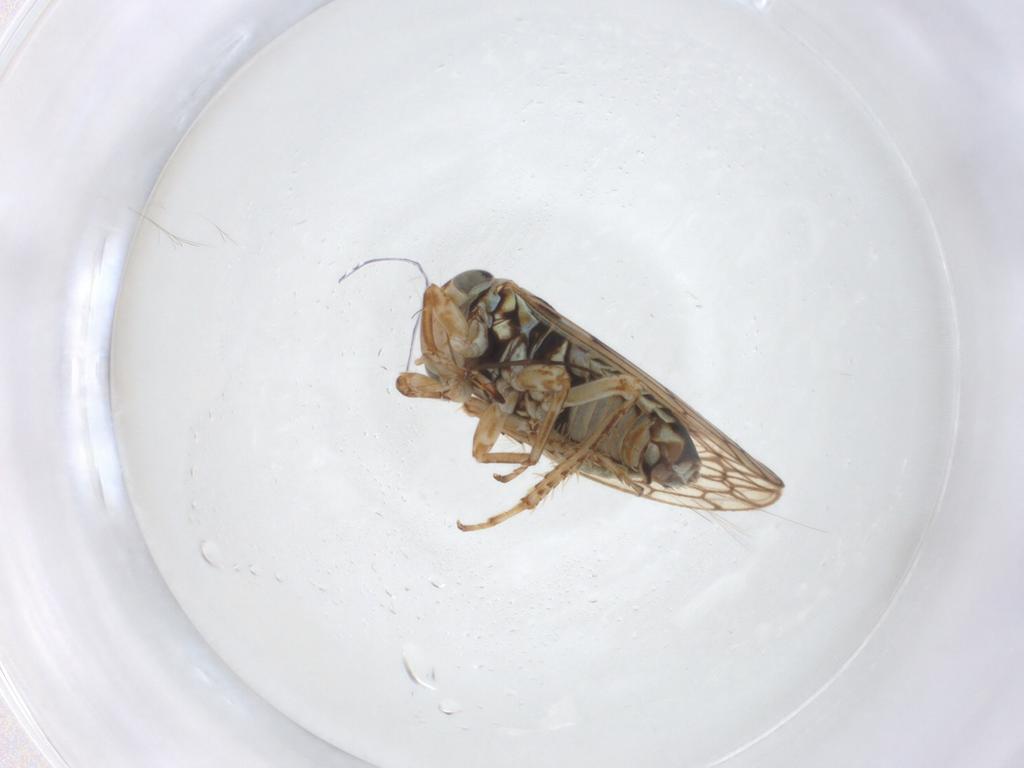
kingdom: Animalia
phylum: Arthropoda
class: Insecta
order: Hemiptera
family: Cicadellidae
